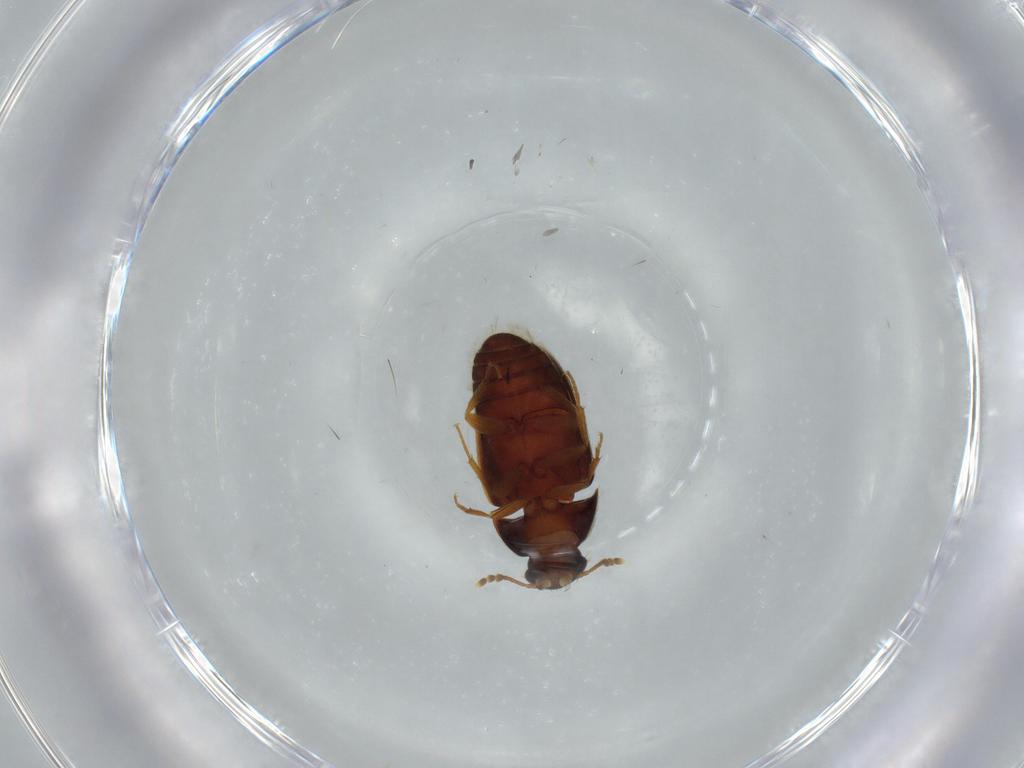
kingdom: Animalia
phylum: Arthropoda
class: Insecta
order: Coleoptera
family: Mycetophagidae
